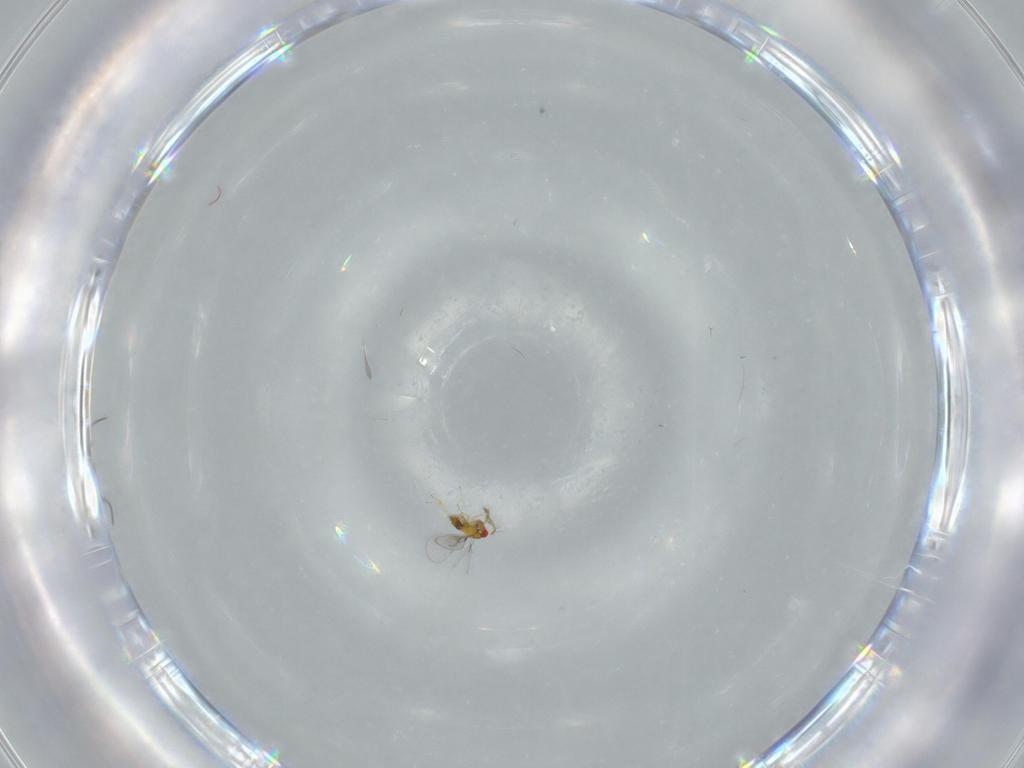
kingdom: Animalia
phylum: Arthropoda
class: Insecta
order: Hymenoptera
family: Trichogrammatidae
